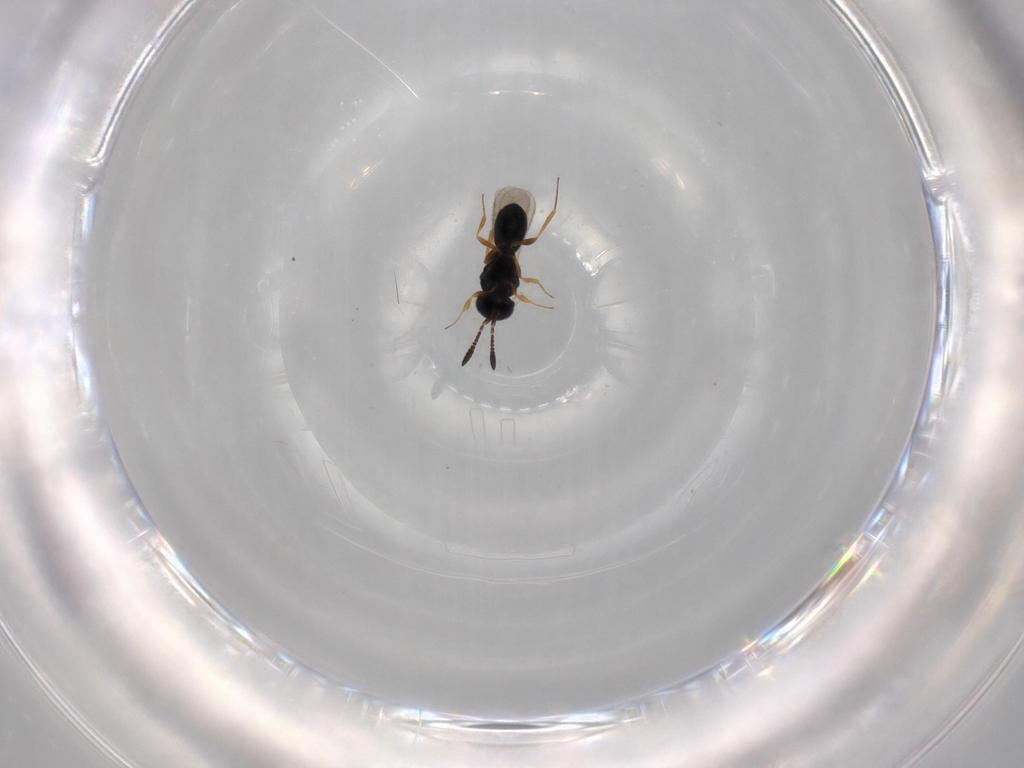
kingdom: Animalia
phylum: Arthropoda
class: Insecta
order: Hymenoptera
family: Scelionidae
